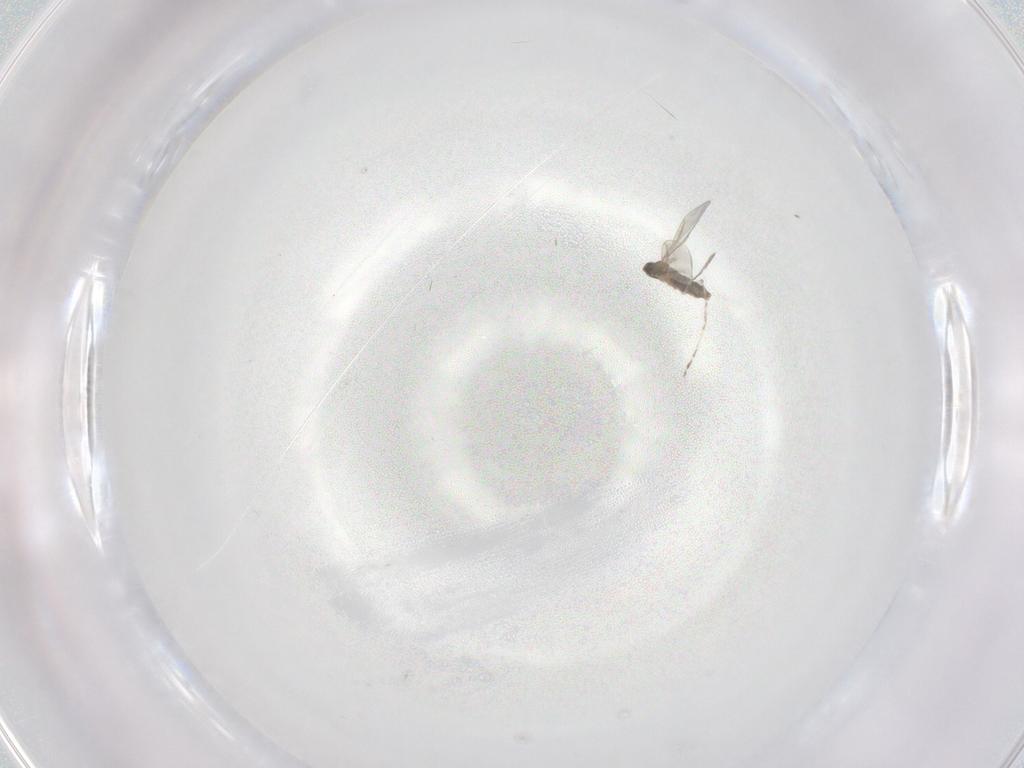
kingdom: Animalia
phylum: Arthropoda
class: Insecta
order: Diptera
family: Cecidomyiidae
